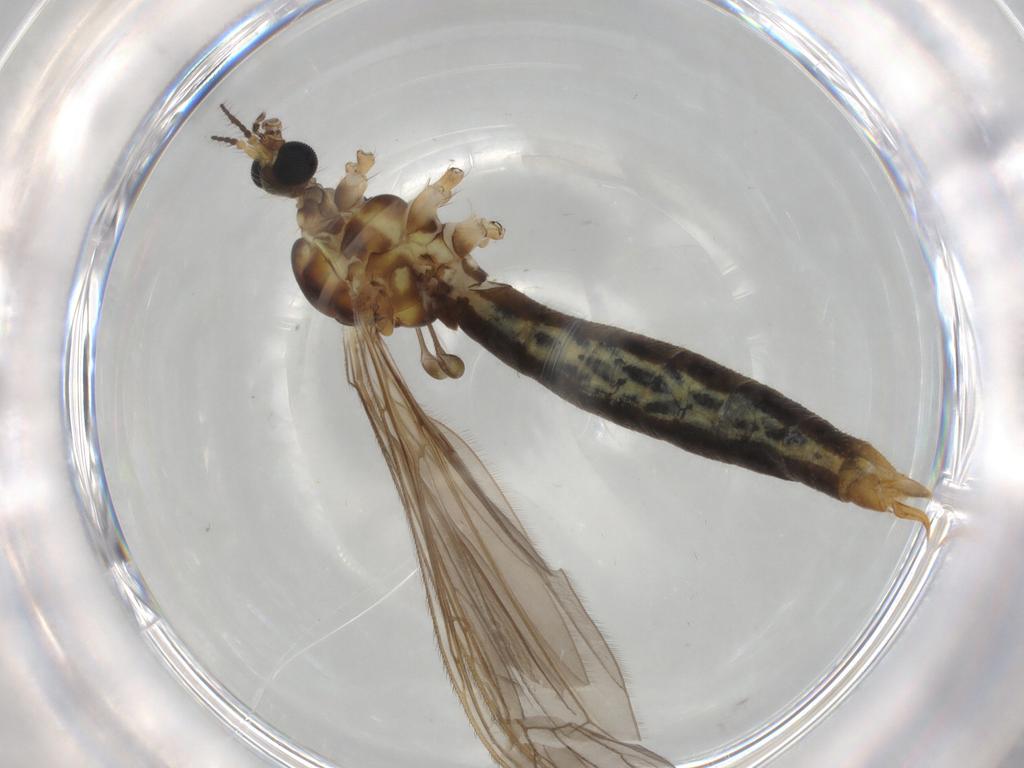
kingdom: Animalia
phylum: Arthropoda
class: Insecta
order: Diptera
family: Limoniidae
